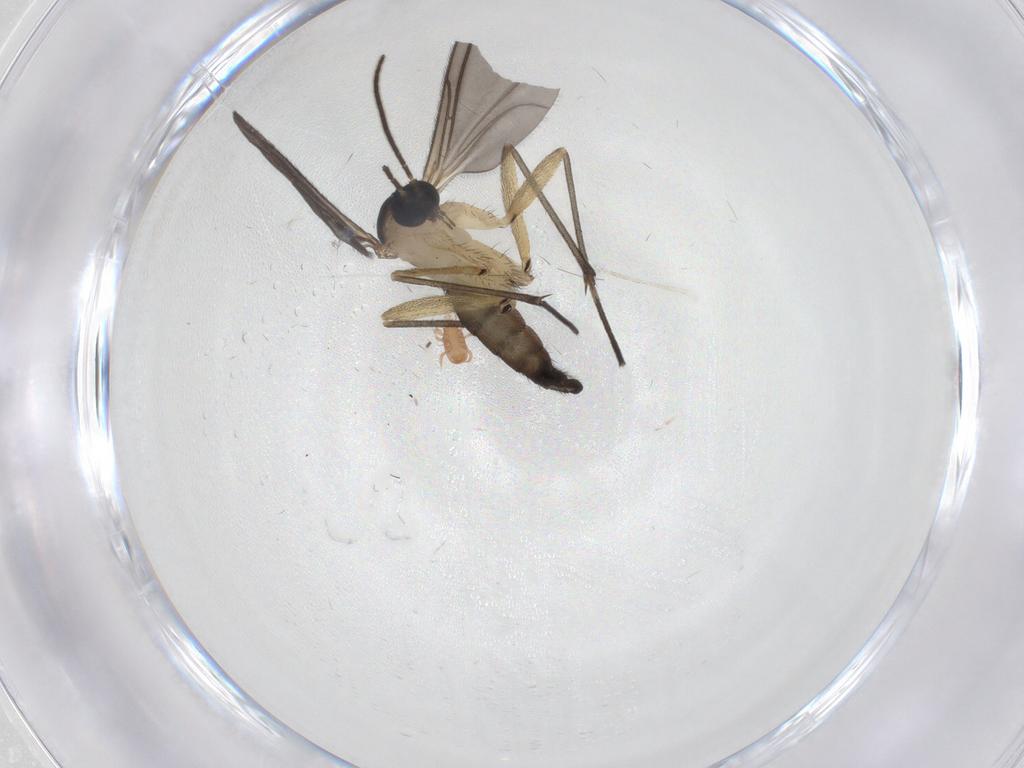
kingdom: Animalia
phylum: Arthropoda
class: Insecta
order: Diptera
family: Sciaridae
